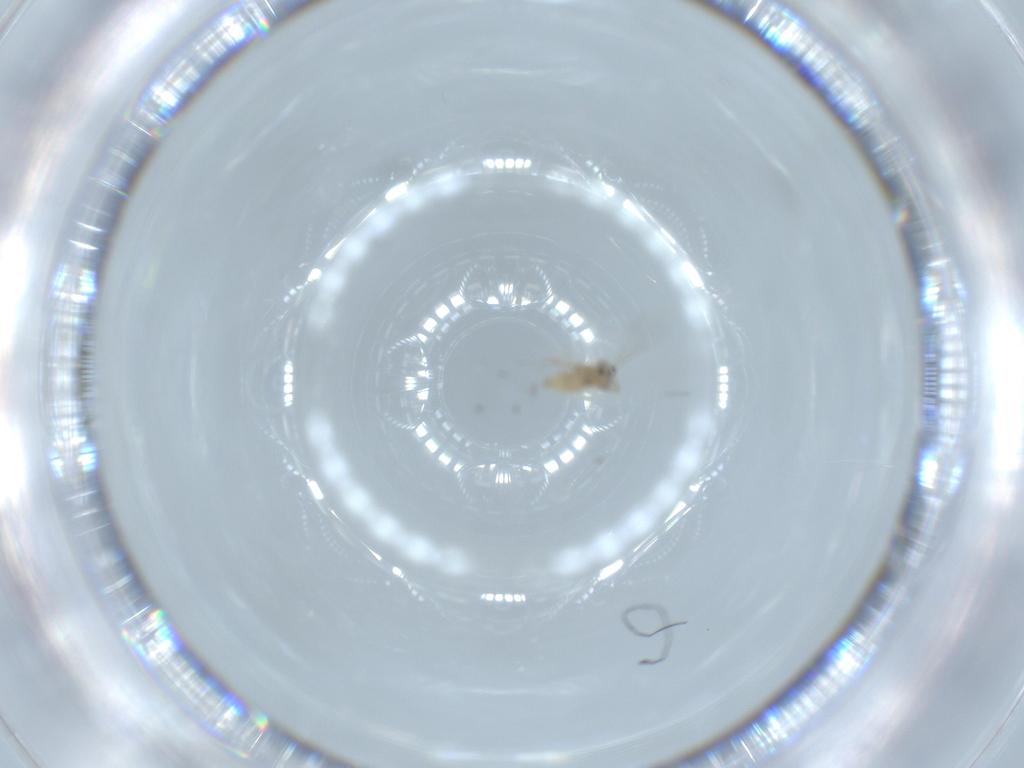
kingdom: Animalia
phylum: Arthropoda
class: Insecta
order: Diptera
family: Cecidomyiidae
